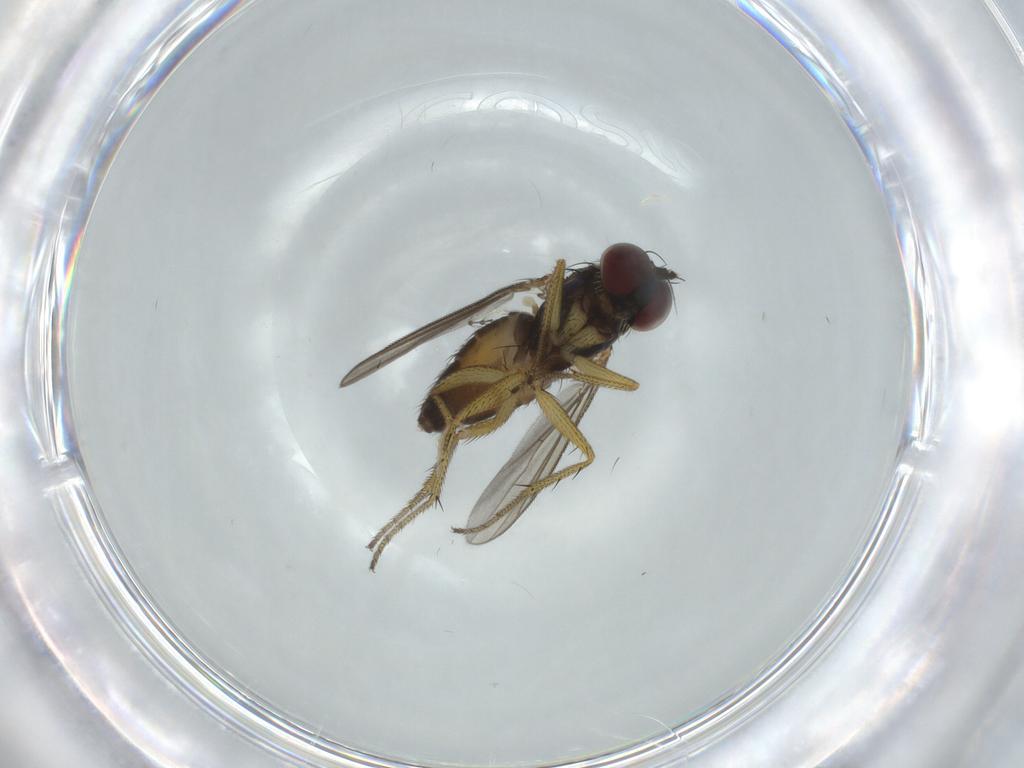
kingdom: Animalia
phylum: Arthropoda
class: Insecta
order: Diptera
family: Dolichopodidae
